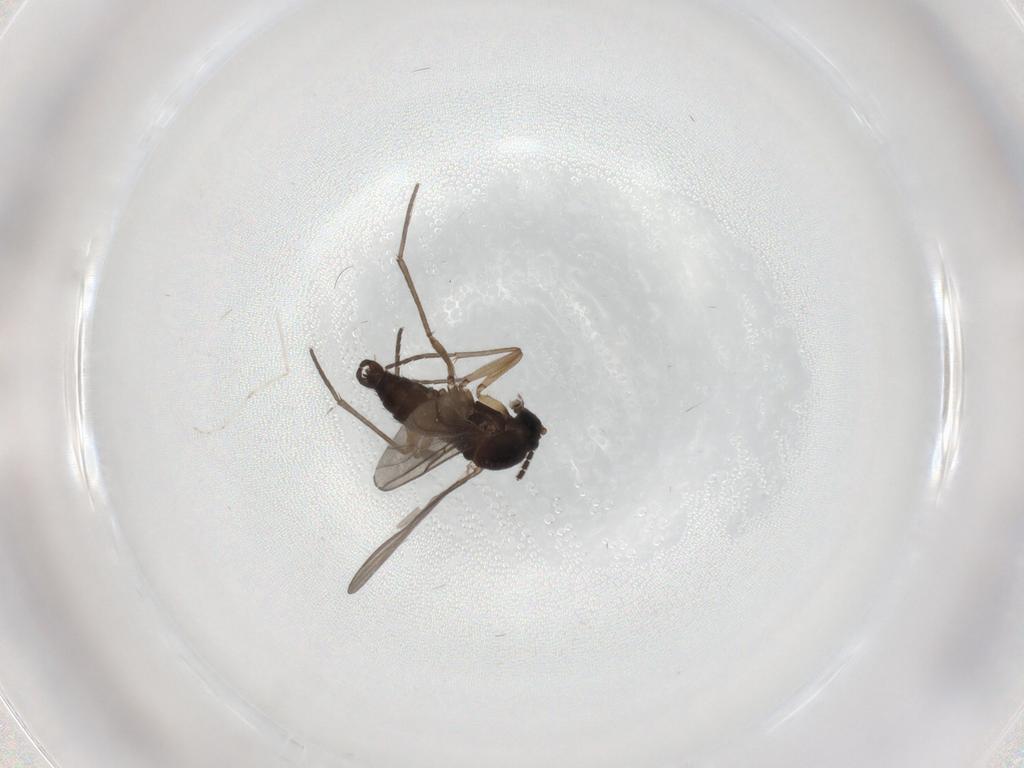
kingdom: Animalia
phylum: Arthropoda
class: Insecta
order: Diptera
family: Sciaridae
